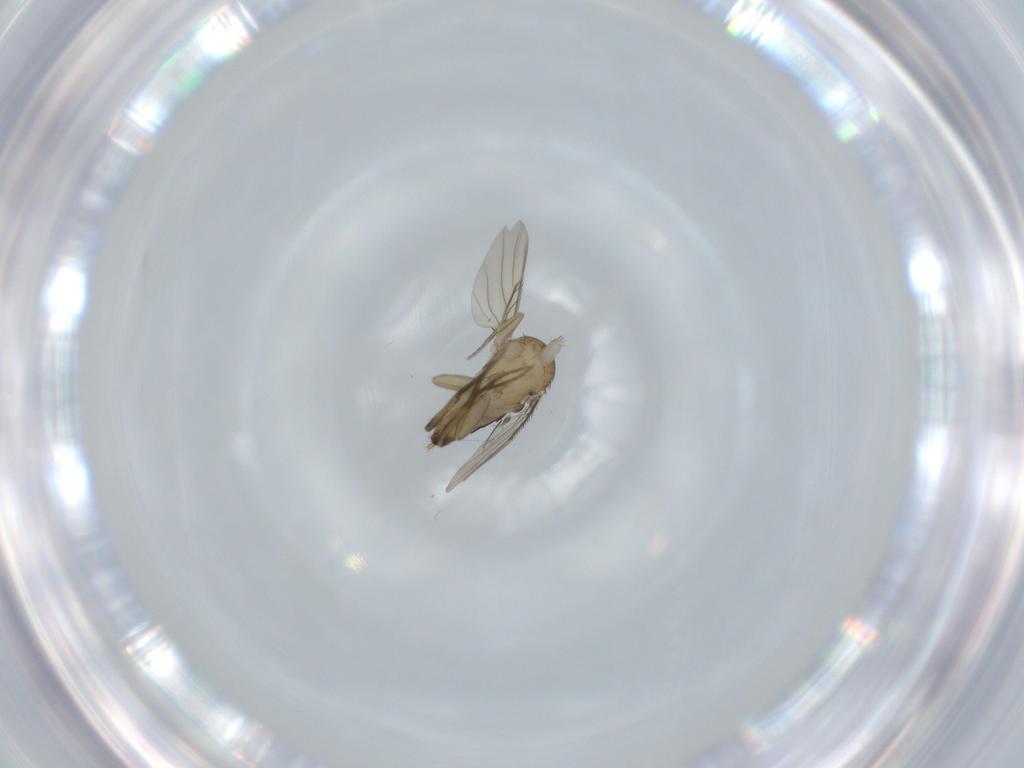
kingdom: Animalia
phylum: Arthropoda
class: Insecta
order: Diptera
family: Phoridae
